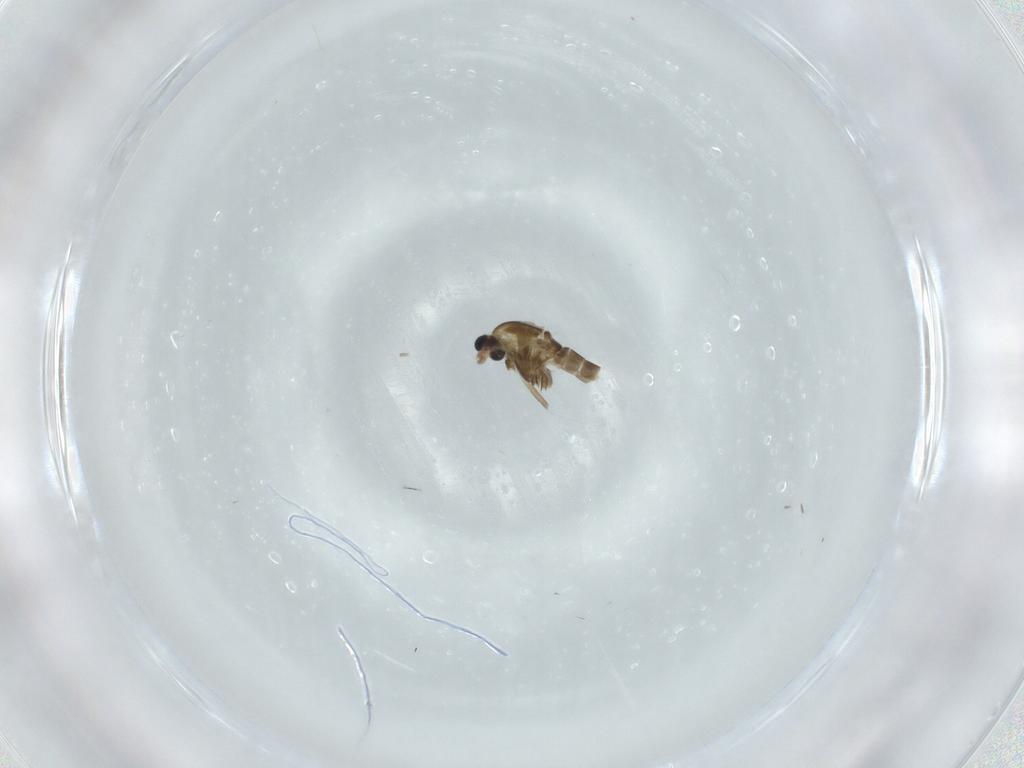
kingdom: Animalia
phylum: Arthropoda
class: Insecta
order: Diptera
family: Chironomidae
